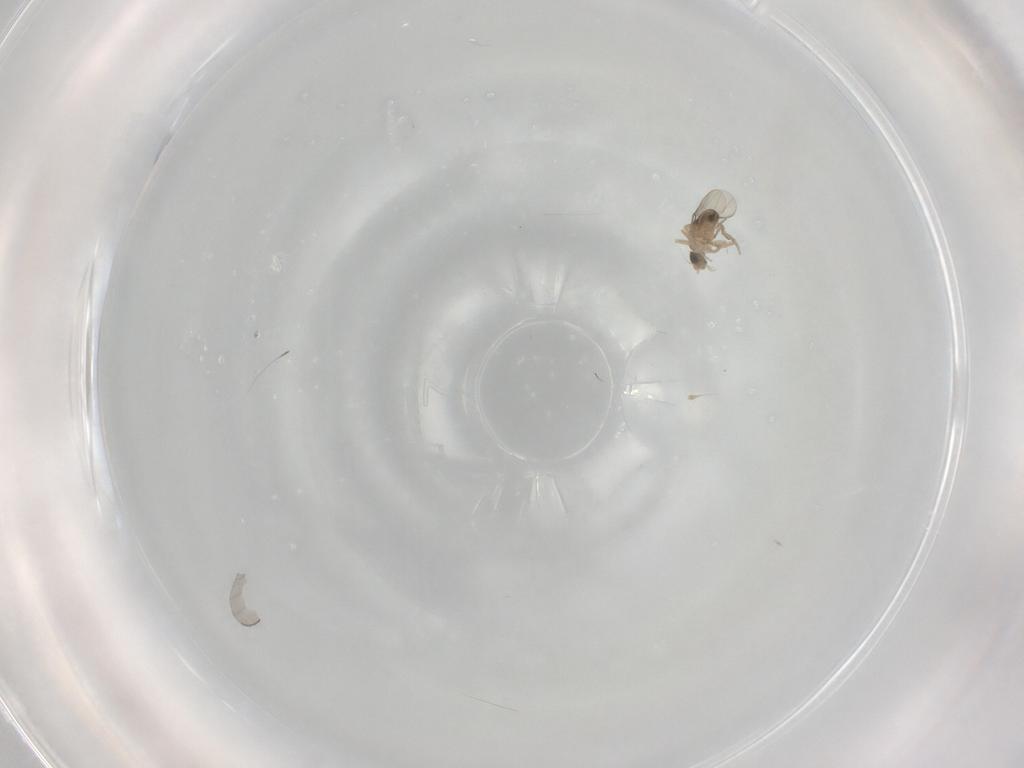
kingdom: Animalia
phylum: Arthropoda
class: Insecta
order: Diptera
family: Phoridae
